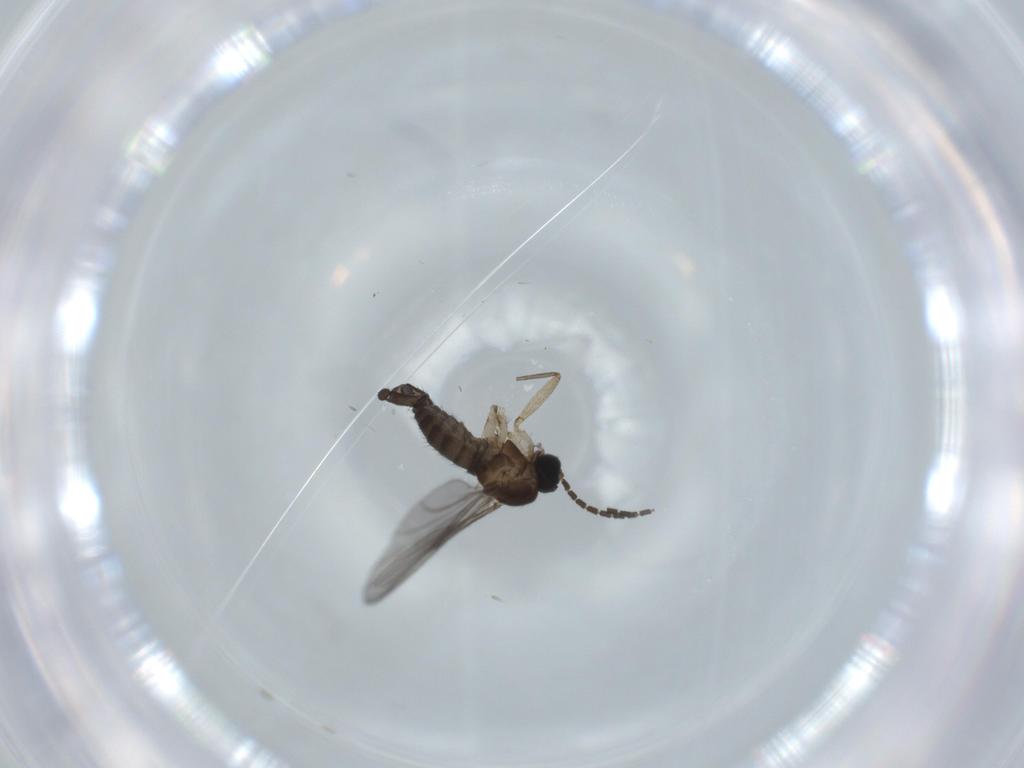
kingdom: Animalia
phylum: Arthropoda
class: Insecta
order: Diptera
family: Sciaridae
